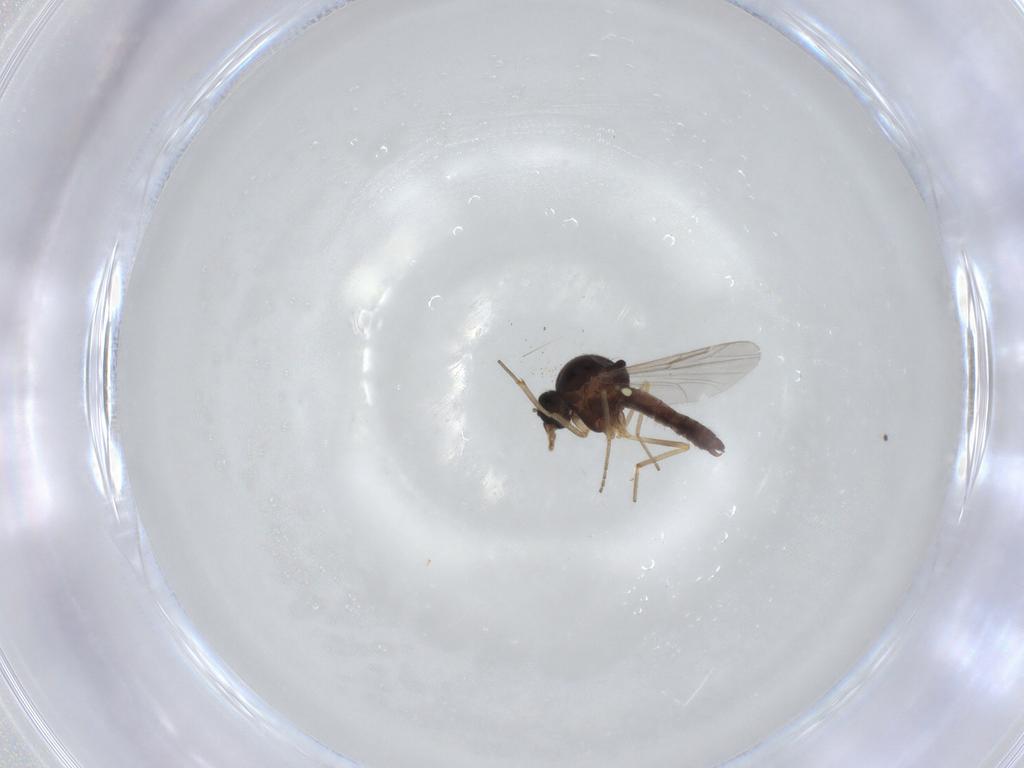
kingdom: Animalia
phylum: Arthropoda
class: Insecta
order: Diptera
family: Ceratopogonidae
